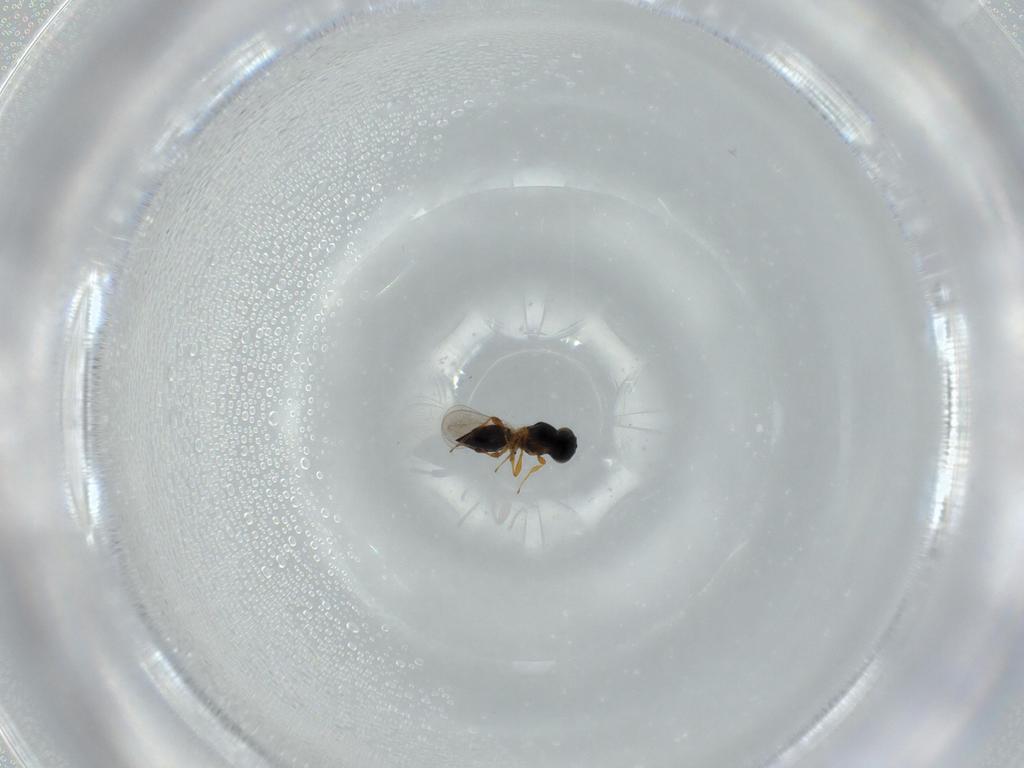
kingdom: Animalia
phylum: Arthropoda
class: Insecta
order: Hymenoptera
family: Platygastridae
